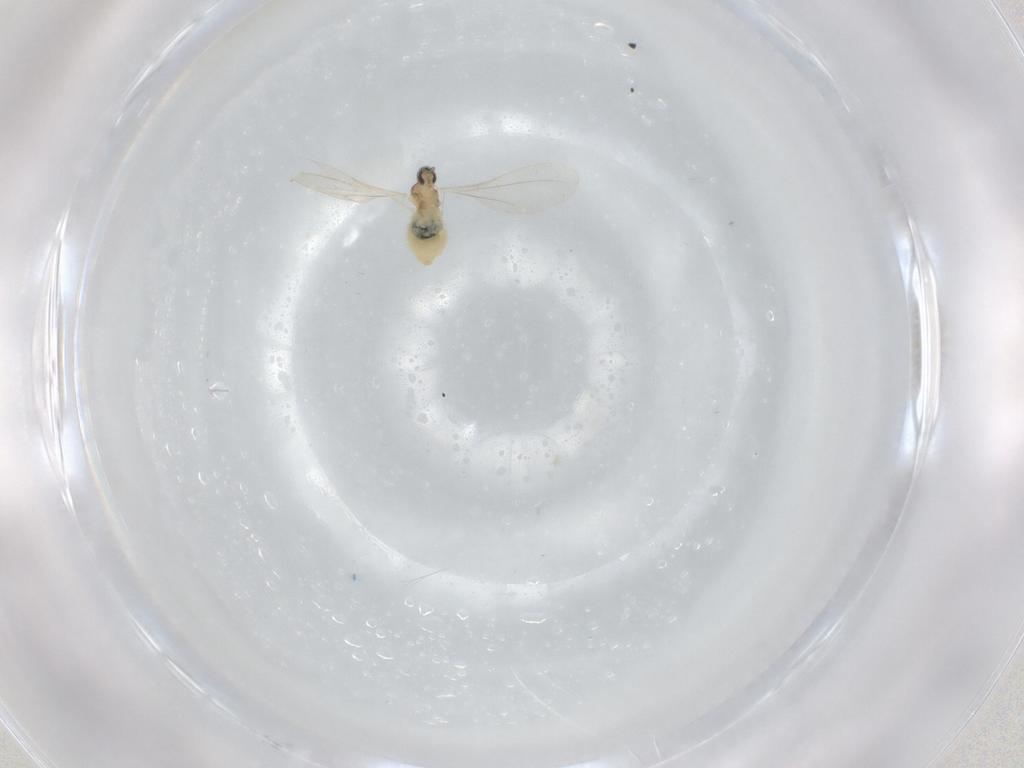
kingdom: Animalia
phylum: Arthropoda
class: Insecta
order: Diptera
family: Cecidomyiidae
